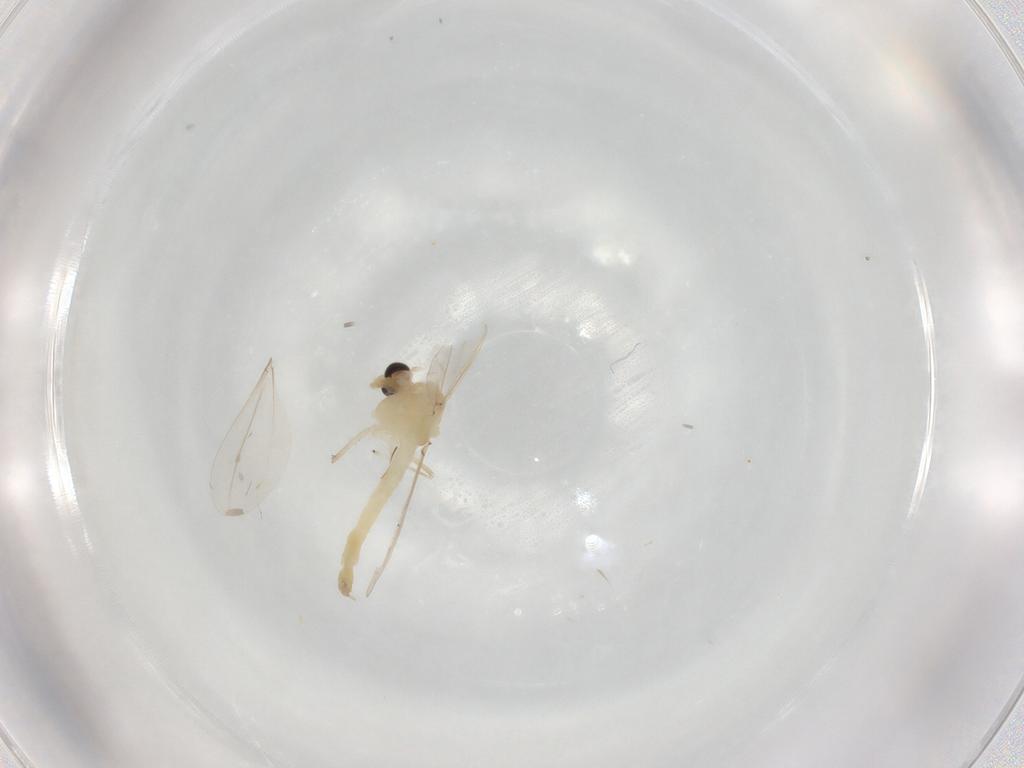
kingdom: Animalia
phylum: Arthropoda
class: Insecta
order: Diptera
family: Chironomidae
